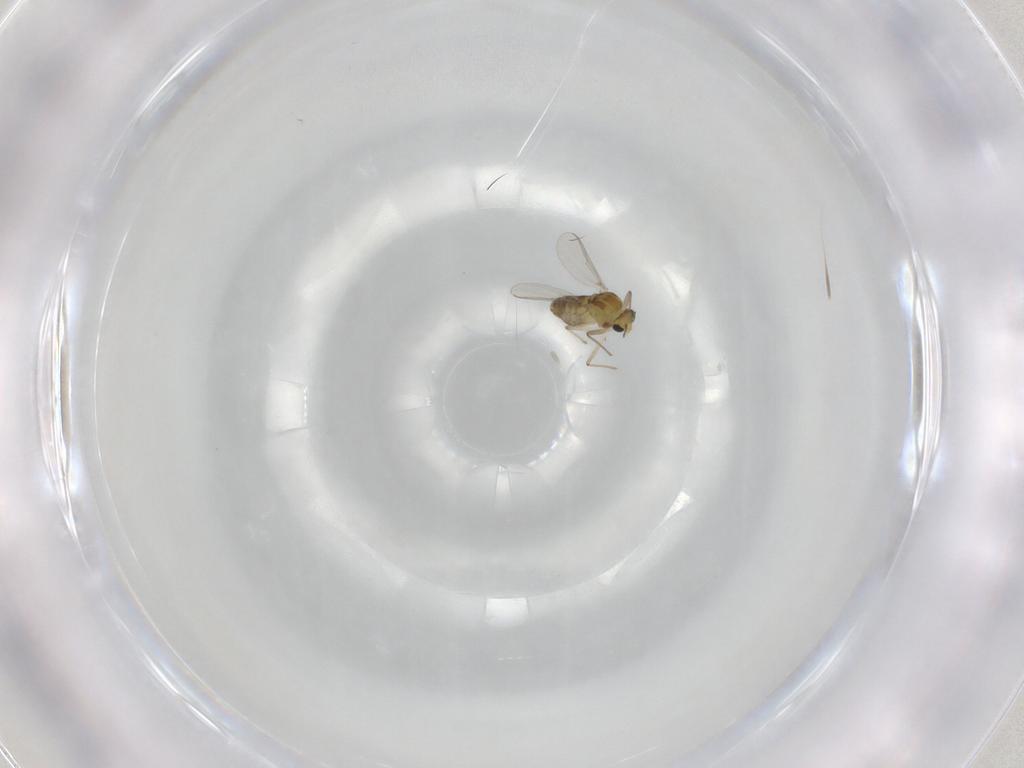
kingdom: Animalia
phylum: Arthropoda
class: Insecta
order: Diptera
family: Chironomidae
